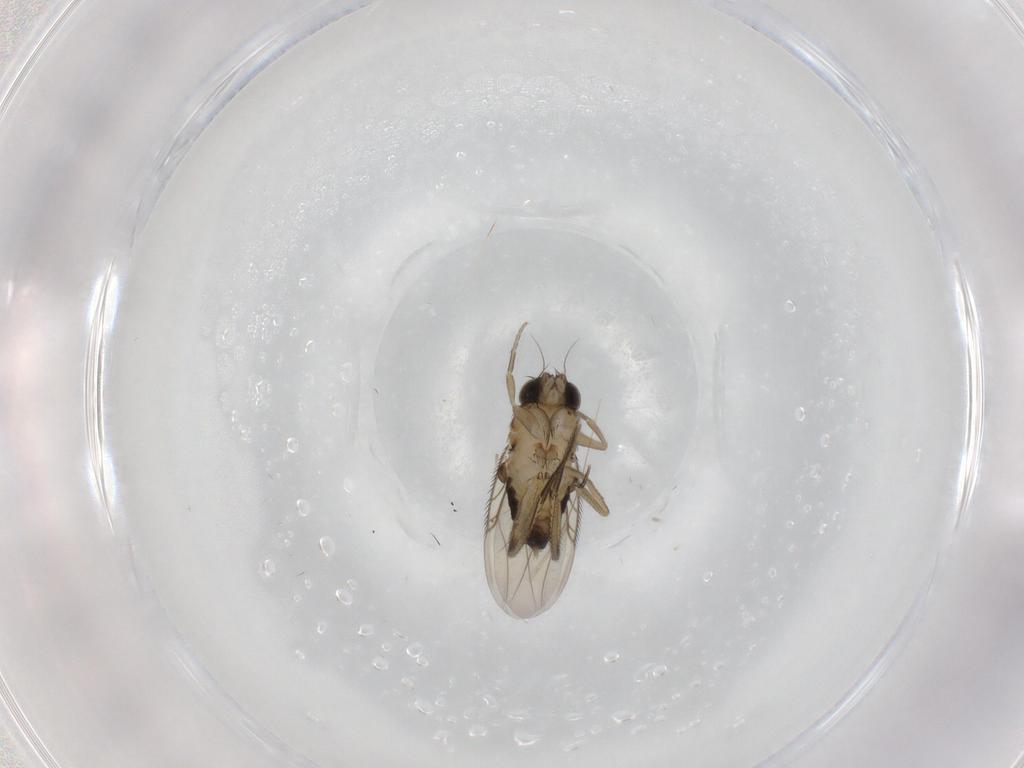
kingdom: Animalia
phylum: Arthropoda
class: Insecta
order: Diptera
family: Phoridae
